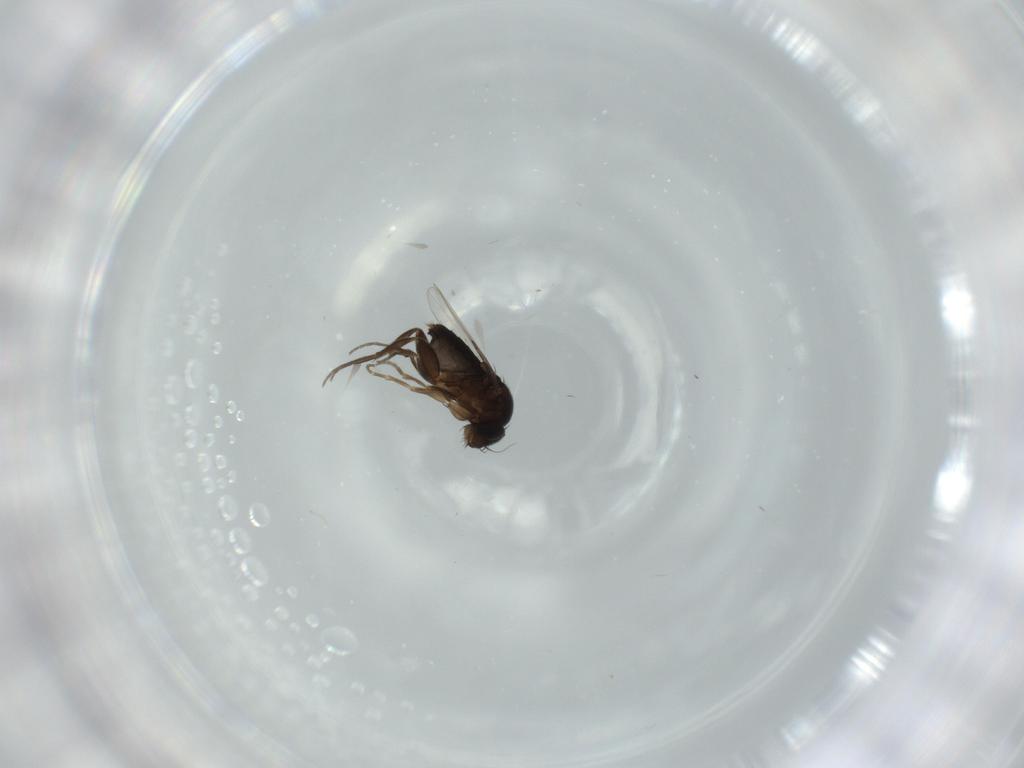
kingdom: Animalia
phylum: Arthropoda
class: Insecta
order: Diptera
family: Phoridae
